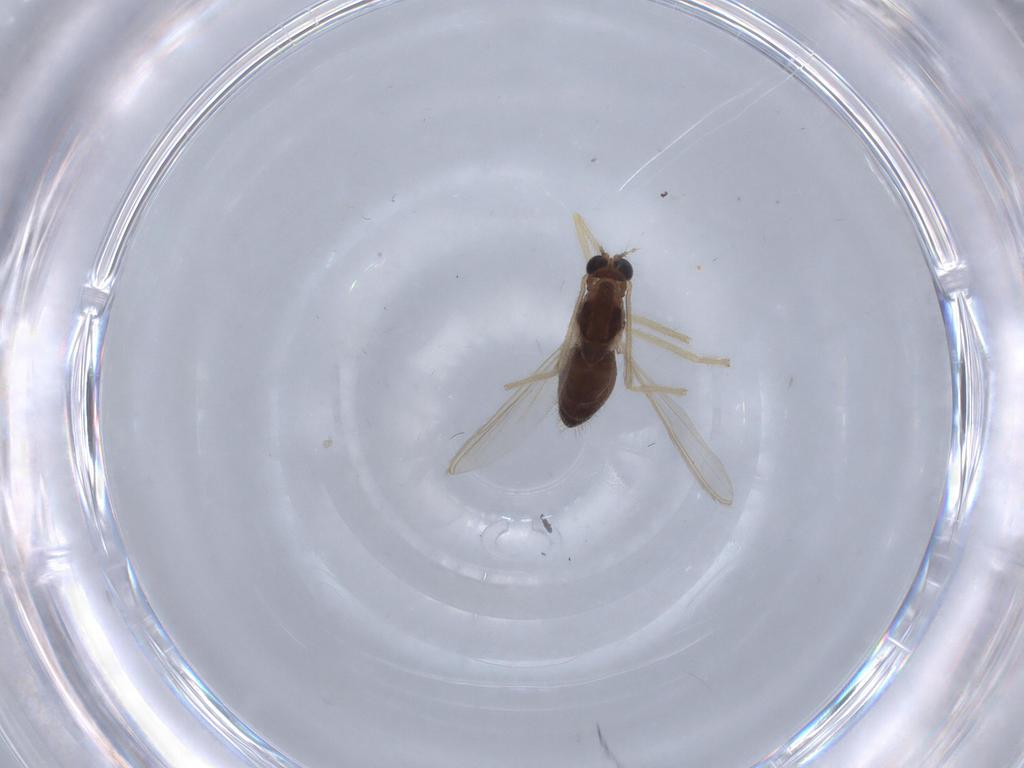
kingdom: Animalia
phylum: Arthropoda
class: Insecta
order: Diptera
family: Chironomidae
